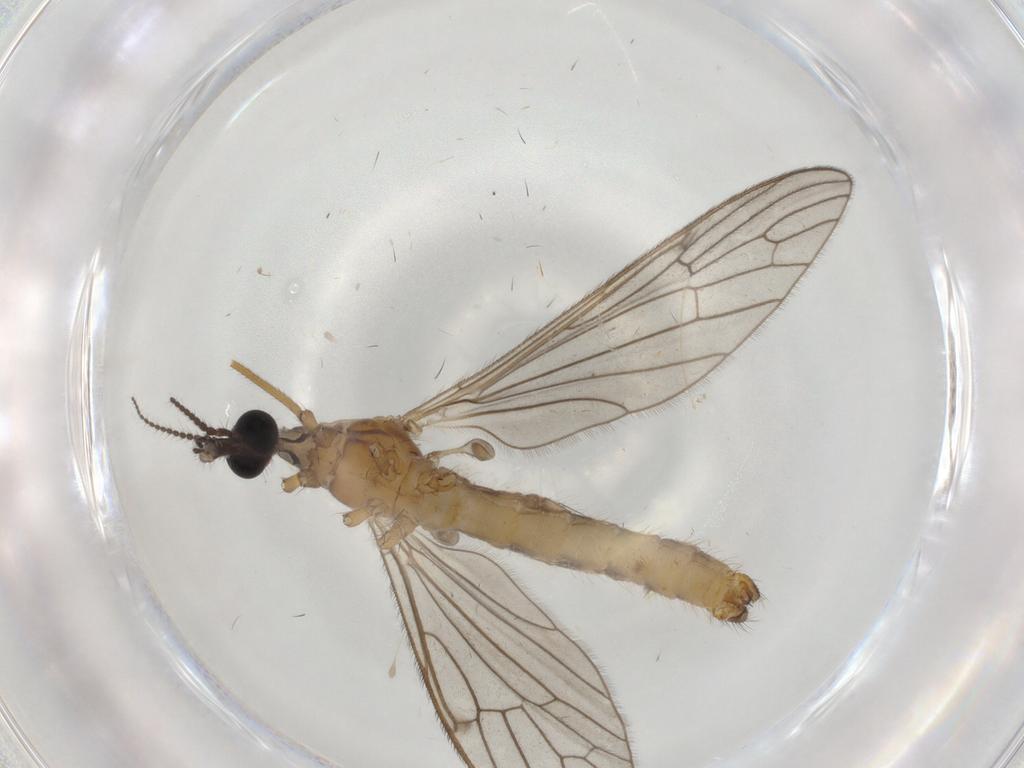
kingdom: Animalia
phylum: Arthropoda
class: Insecta
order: Diptera
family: Limoniidae
